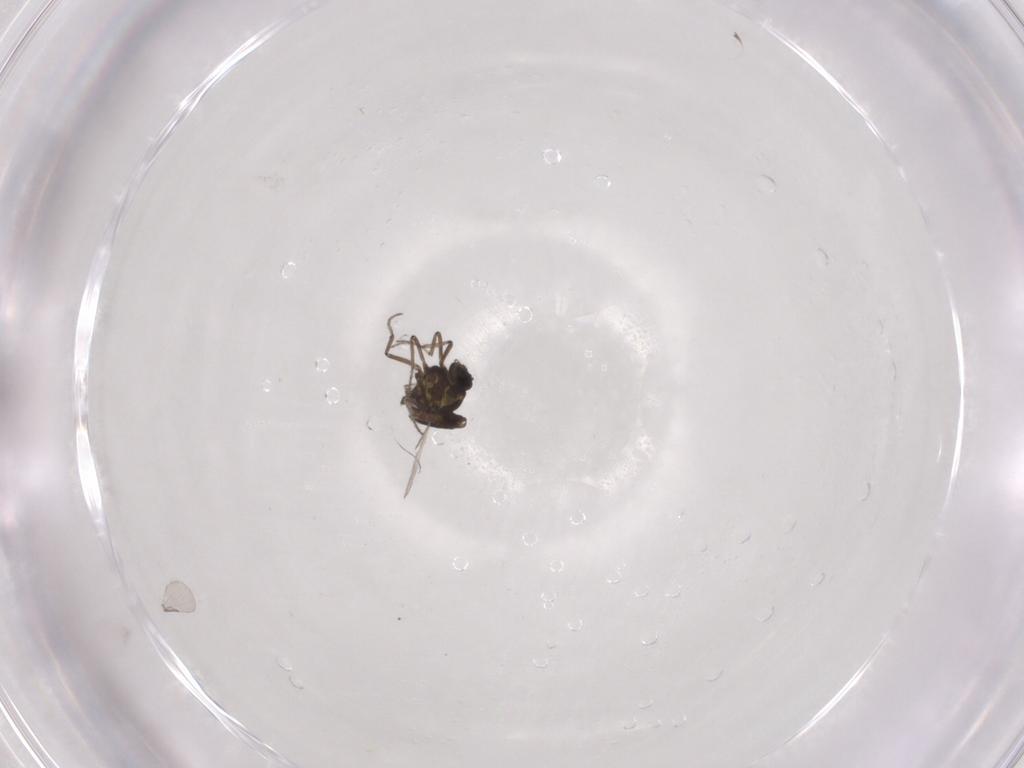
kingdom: Animalia
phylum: Arthropoda
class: Insecta
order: Diptera
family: Ceratopogonidae
